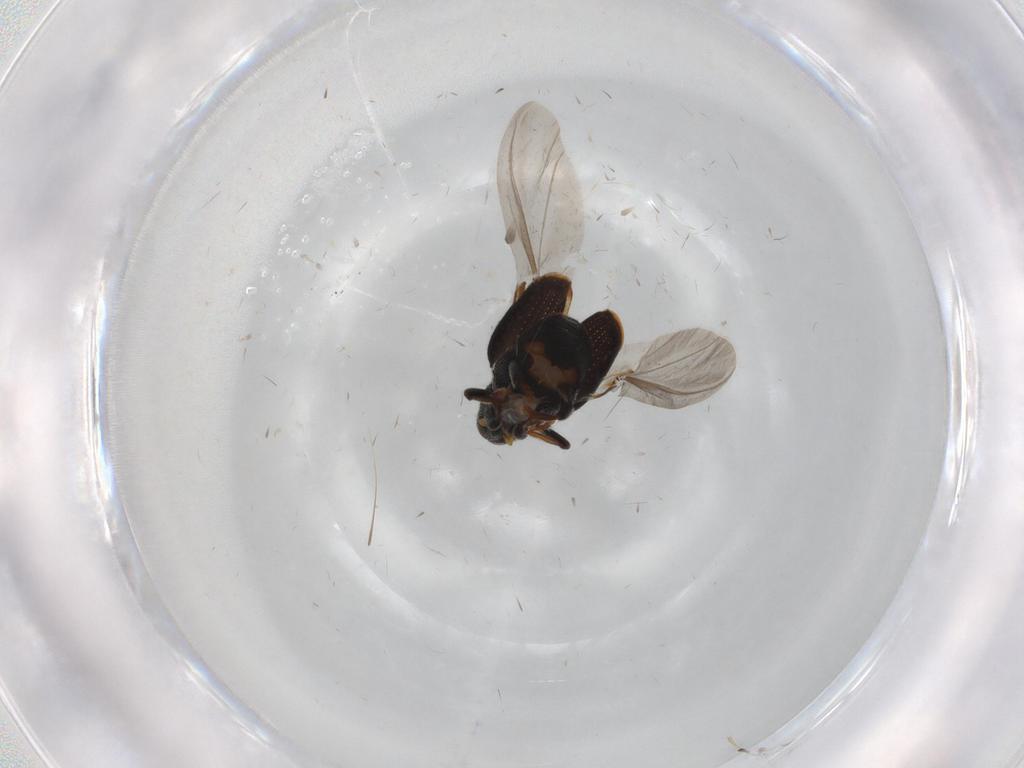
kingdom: Animalia
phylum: Arthropoda
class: Insecta
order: Coleoptera
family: Curculionidae
